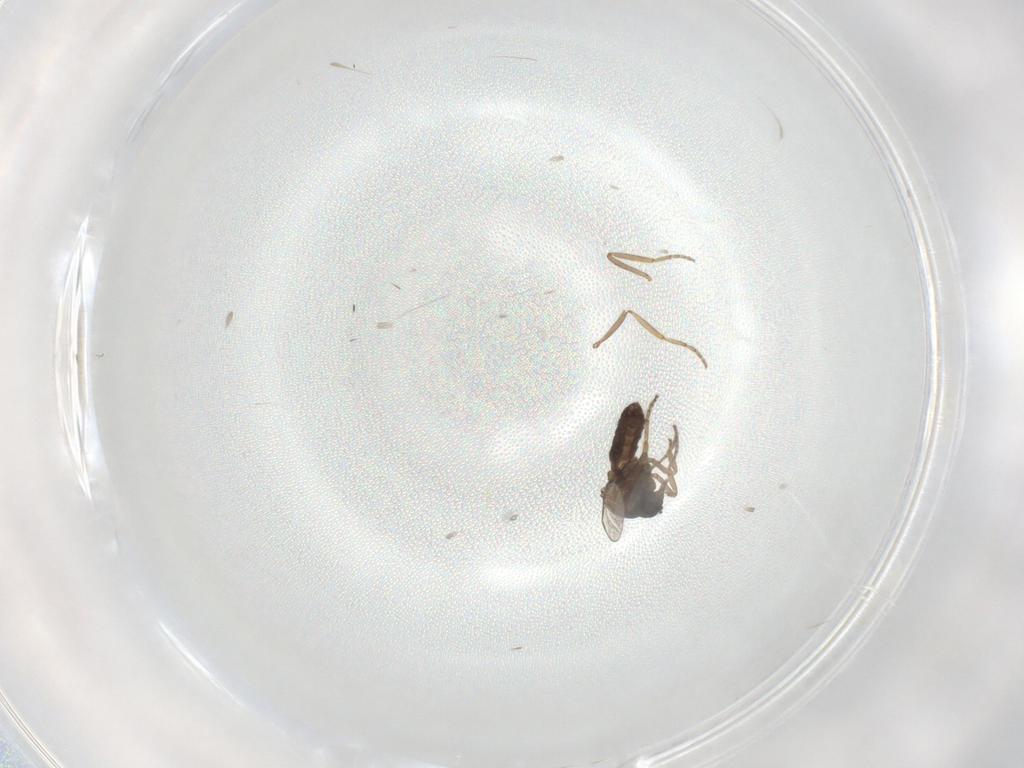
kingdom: Animalia
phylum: Arthropoda
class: Insecta
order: Diptera
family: Ceratopogonidae
